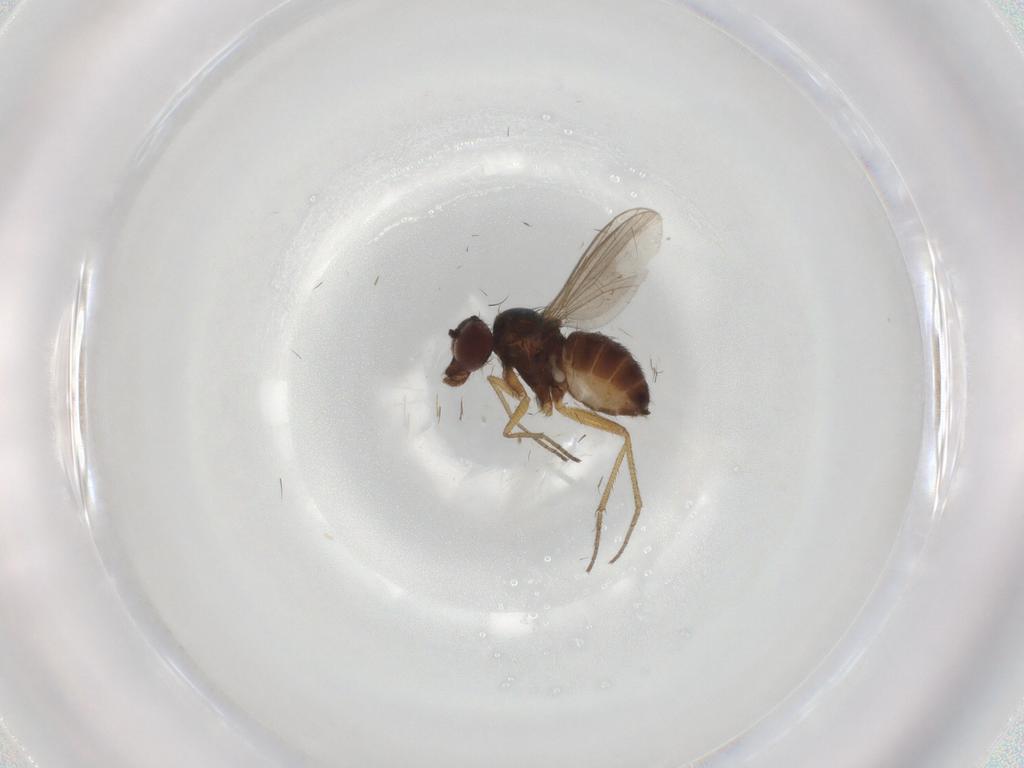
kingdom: Animalia
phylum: Arthropoda
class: Insecta
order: Diptera
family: Dolichopodidae
